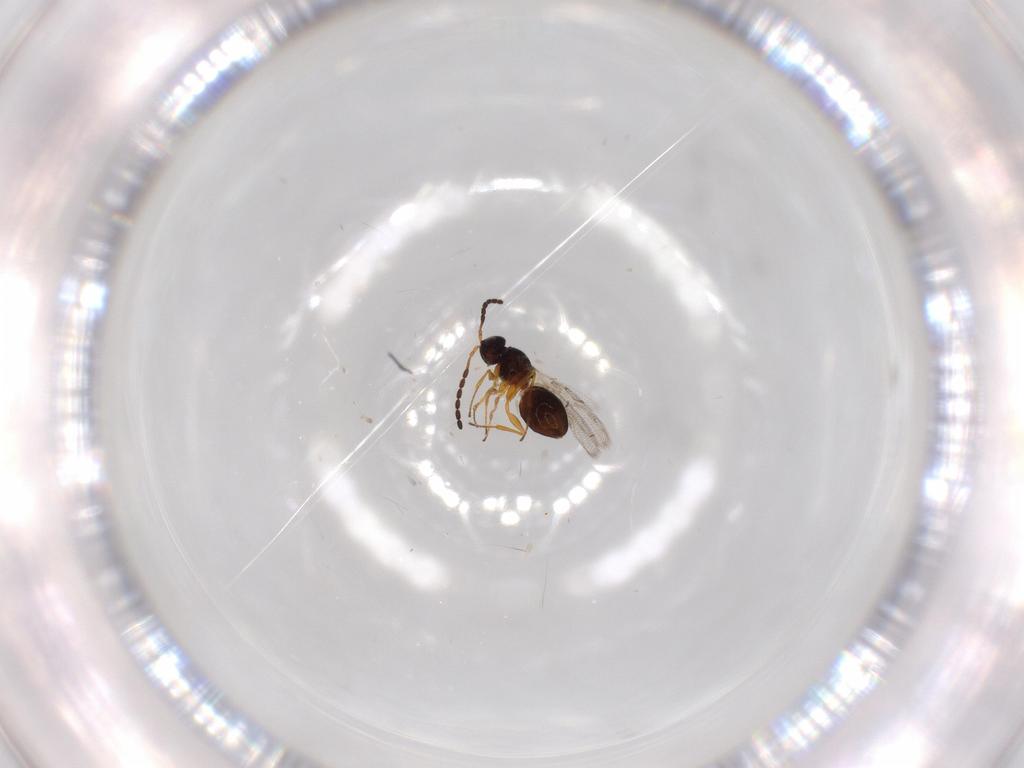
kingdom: Animalia
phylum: Arthropoda
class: Insecta
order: Hymenoptera
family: Figitidae
